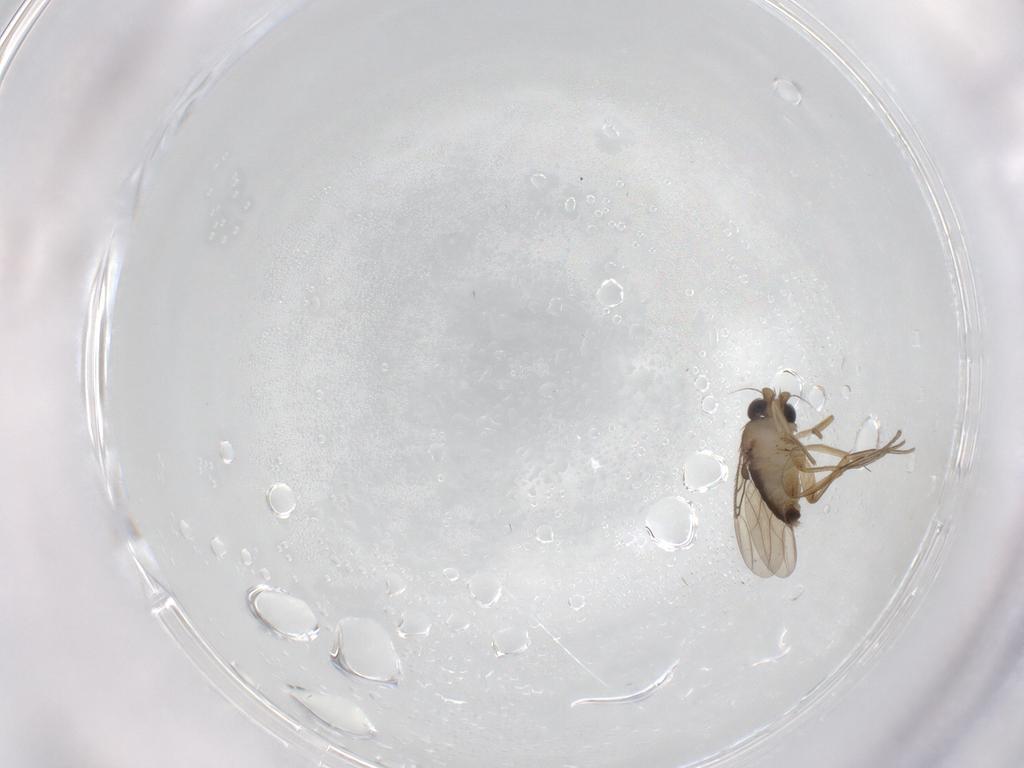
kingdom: Animalia
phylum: Arthropoda
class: Insecta
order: Diptera
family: Phoridae
